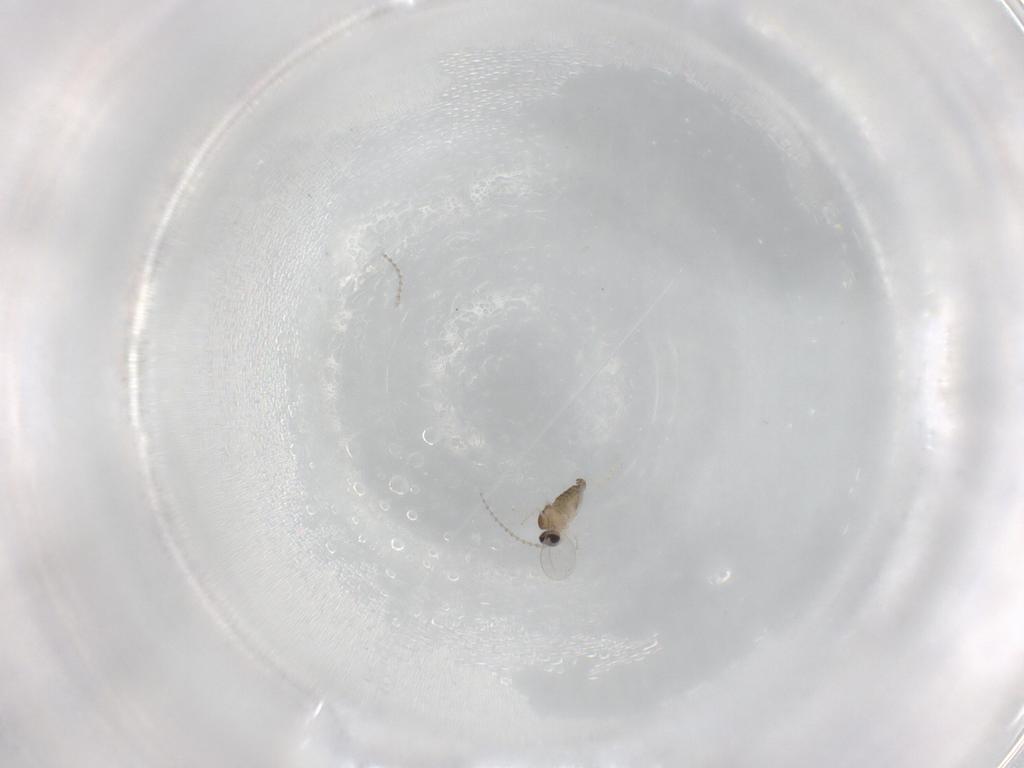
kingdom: Animalia
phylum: Arthropoda
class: Insecta
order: Diptera
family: Cecidomyiidae
